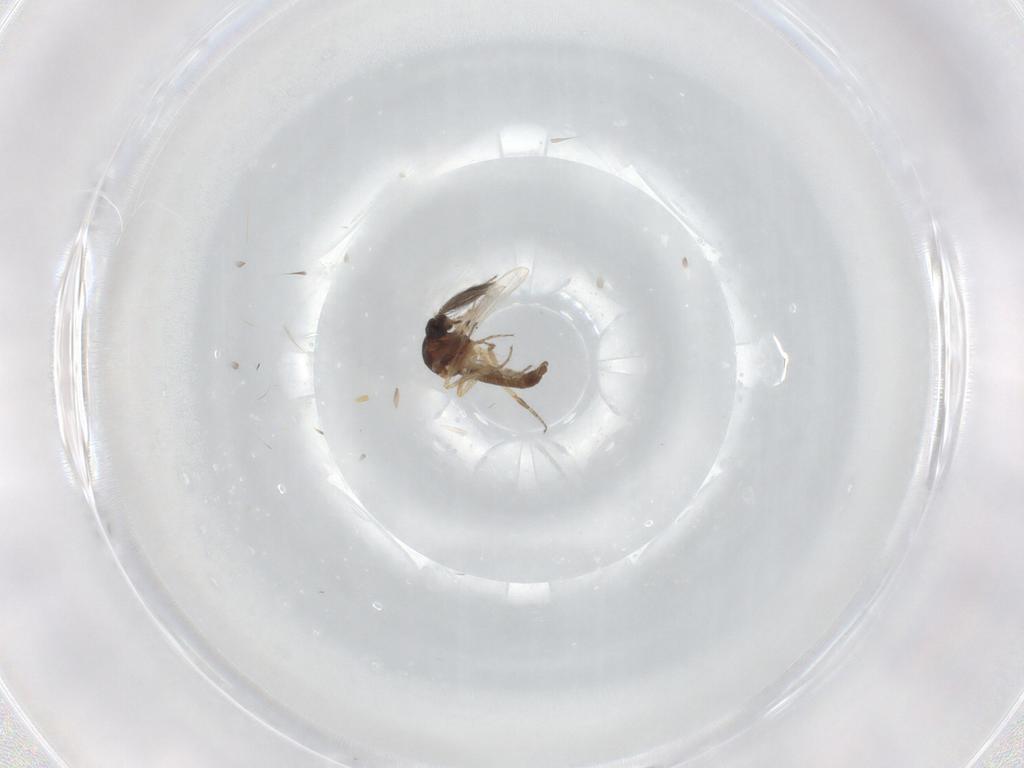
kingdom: Animalia
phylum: Arthropoda
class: Insecta
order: Diptera
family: Ceratopogonidae
